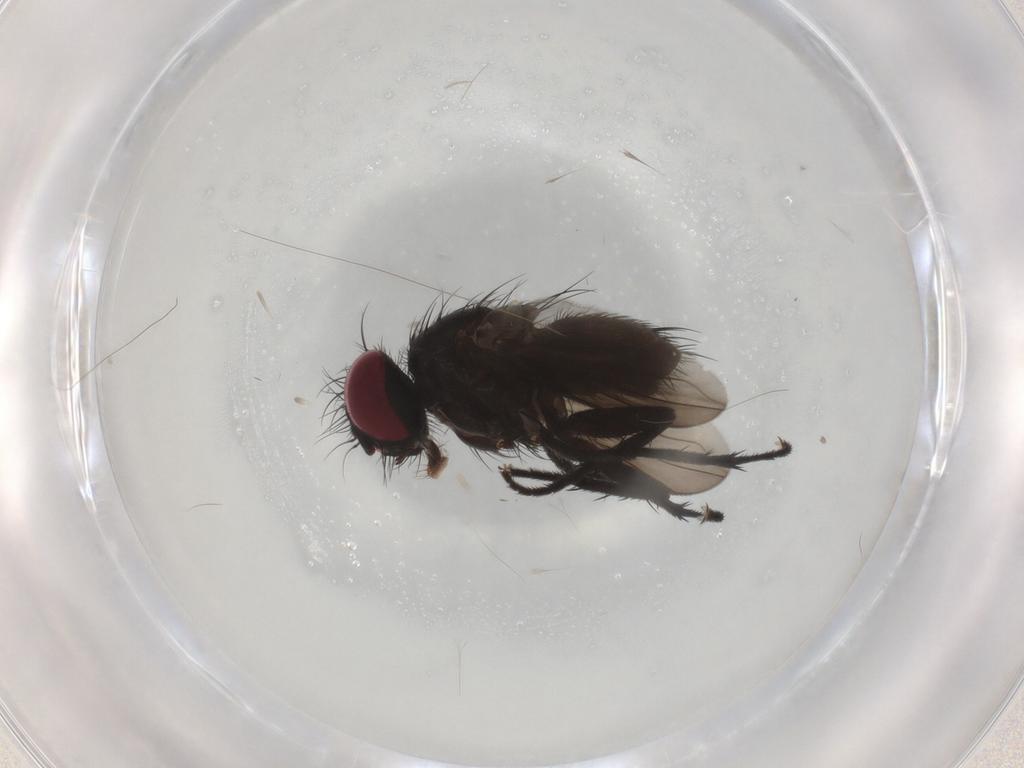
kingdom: Animalia
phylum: Arthropoda
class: Insecta
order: Diptera
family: Calliphoridae
